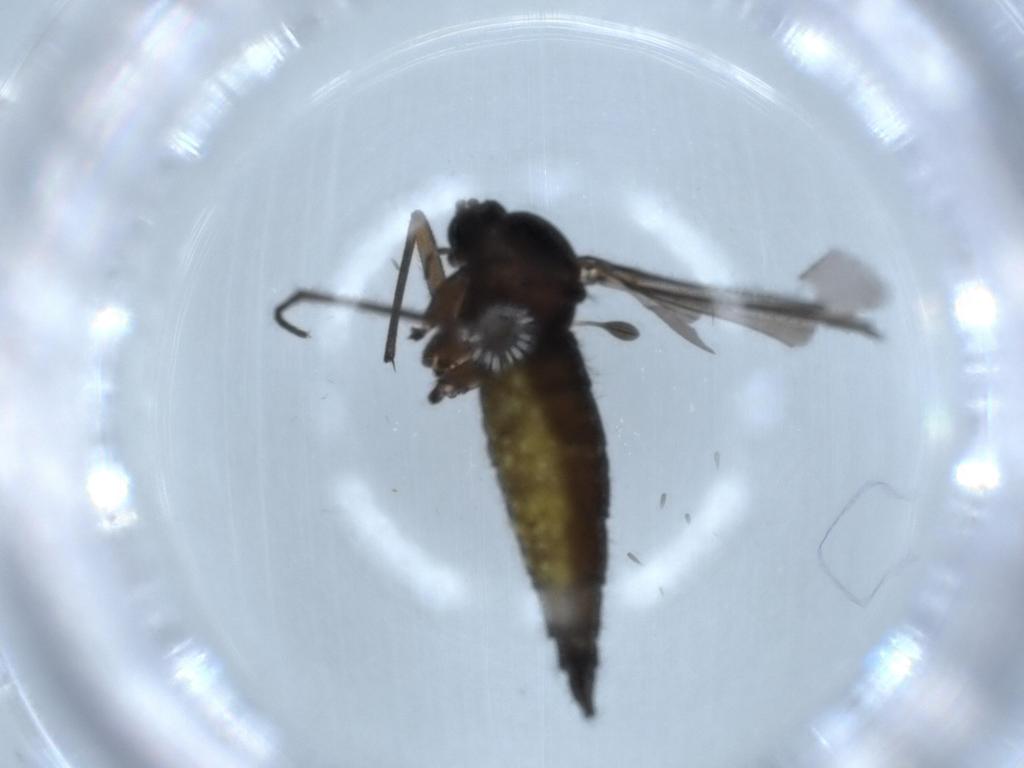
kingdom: Animalia
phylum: Arthropoda
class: Insecta
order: Diptera
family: Sciaridae
